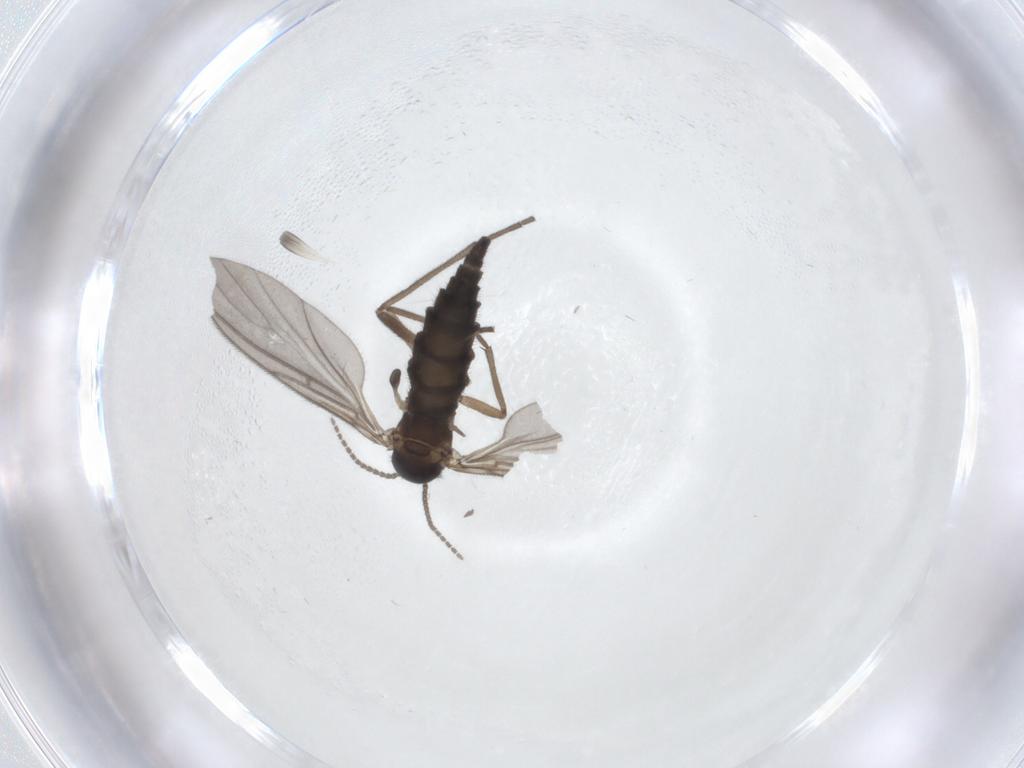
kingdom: Animalia
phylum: Arthropoda
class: Insecta
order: Diptera
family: Sciaridae
